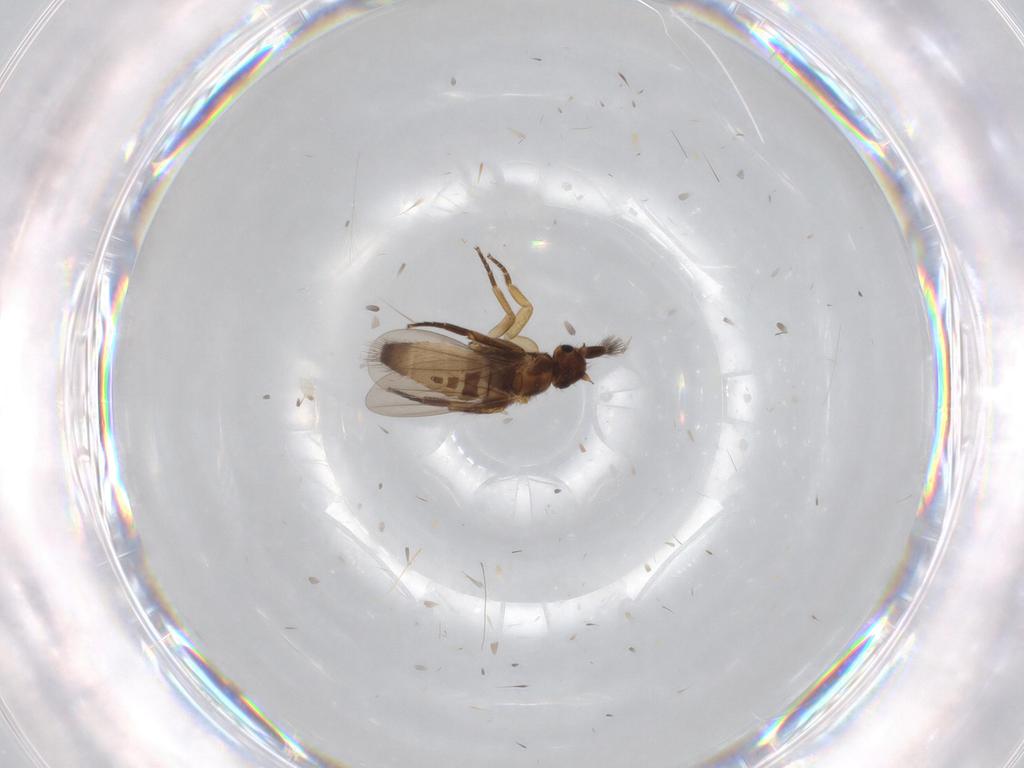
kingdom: Animalia
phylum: Arthropoda
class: Insecta
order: Diptera
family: Phoridae
